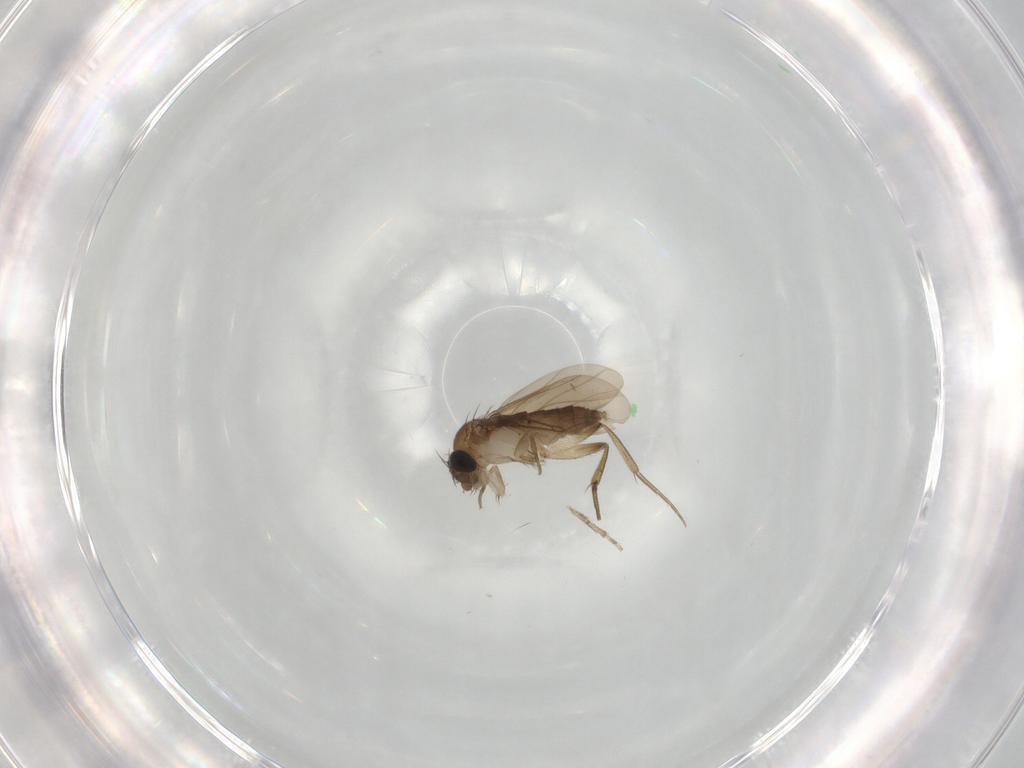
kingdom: Animalia
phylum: Arthropoda
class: Insecta
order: Diptera
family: Phoridae
